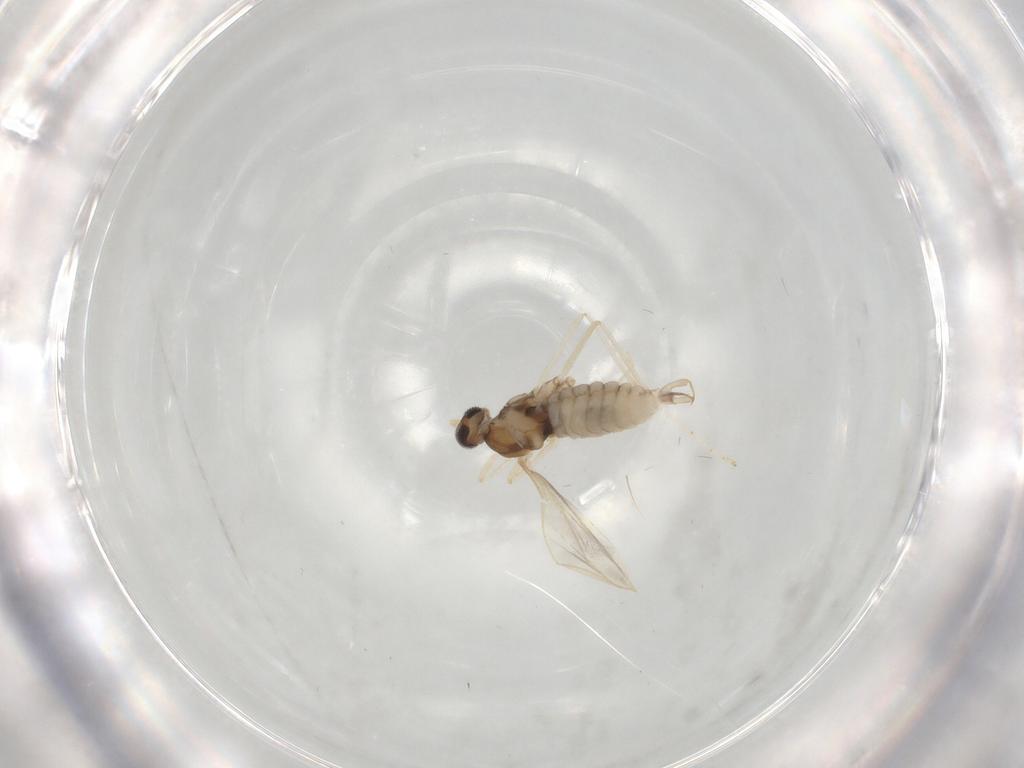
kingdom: Animalia
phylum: Arthropoda
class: Insecta
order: Diptera
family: Cecidomyiidae
